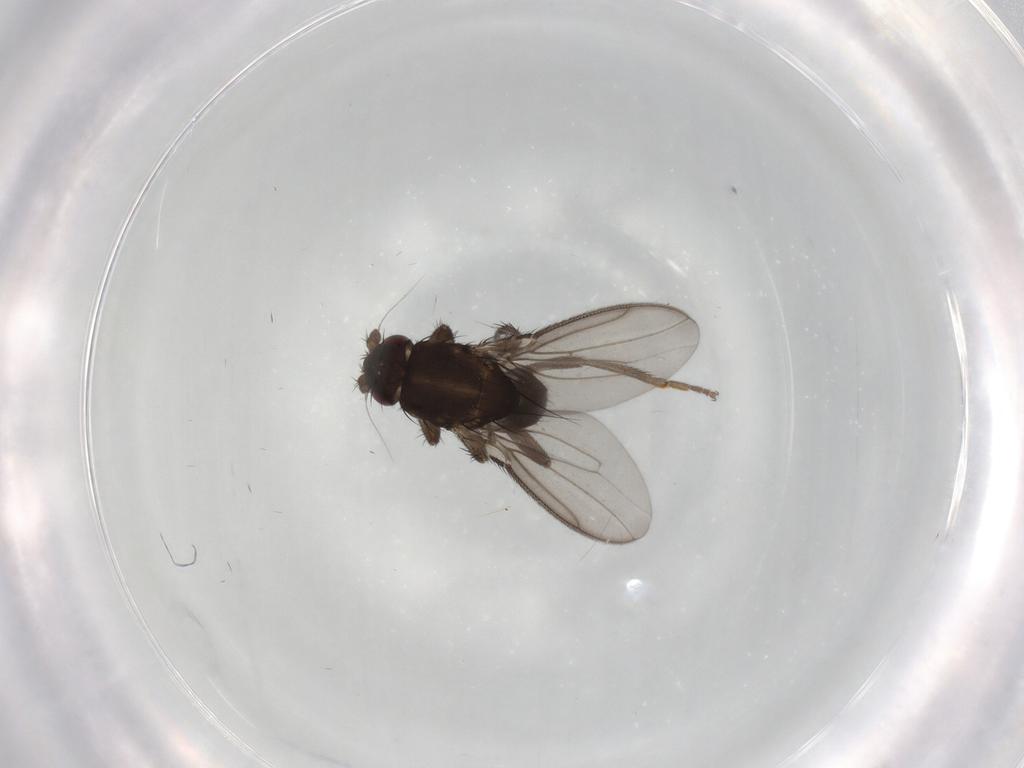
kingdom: Animalia
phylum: Arthropoda
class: Insecta
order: Diptera
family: Sphaeroceridae
